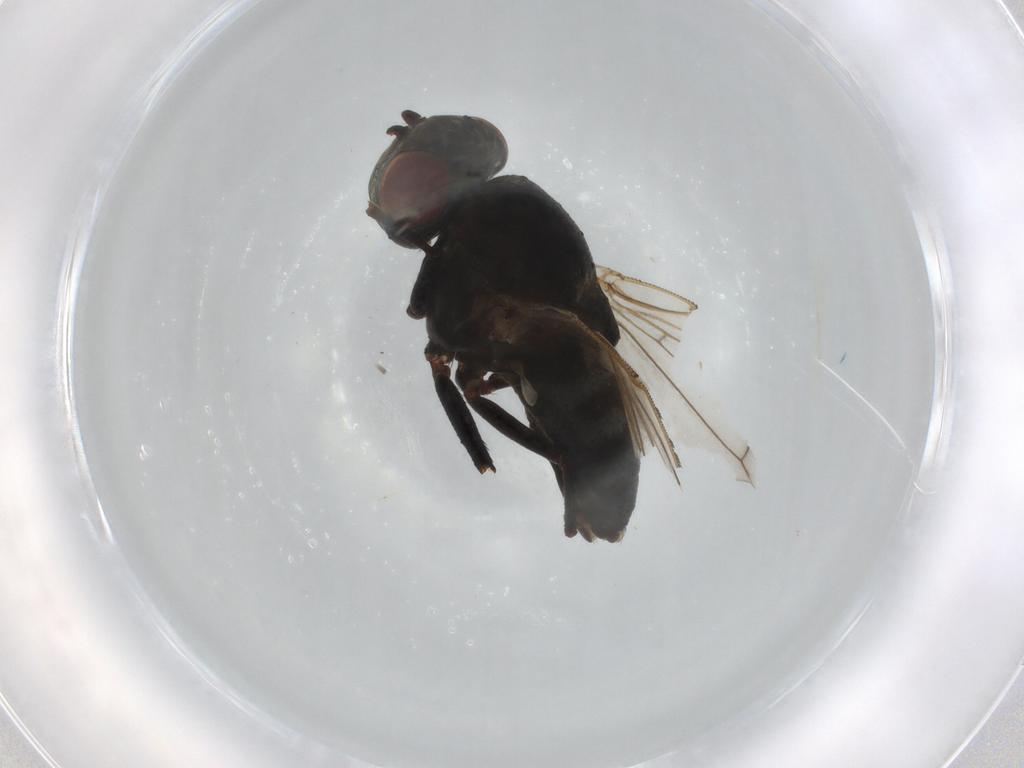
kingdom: Animalia
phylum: Arthropoda
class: Insecta
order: Diptera
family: Ephydridae
